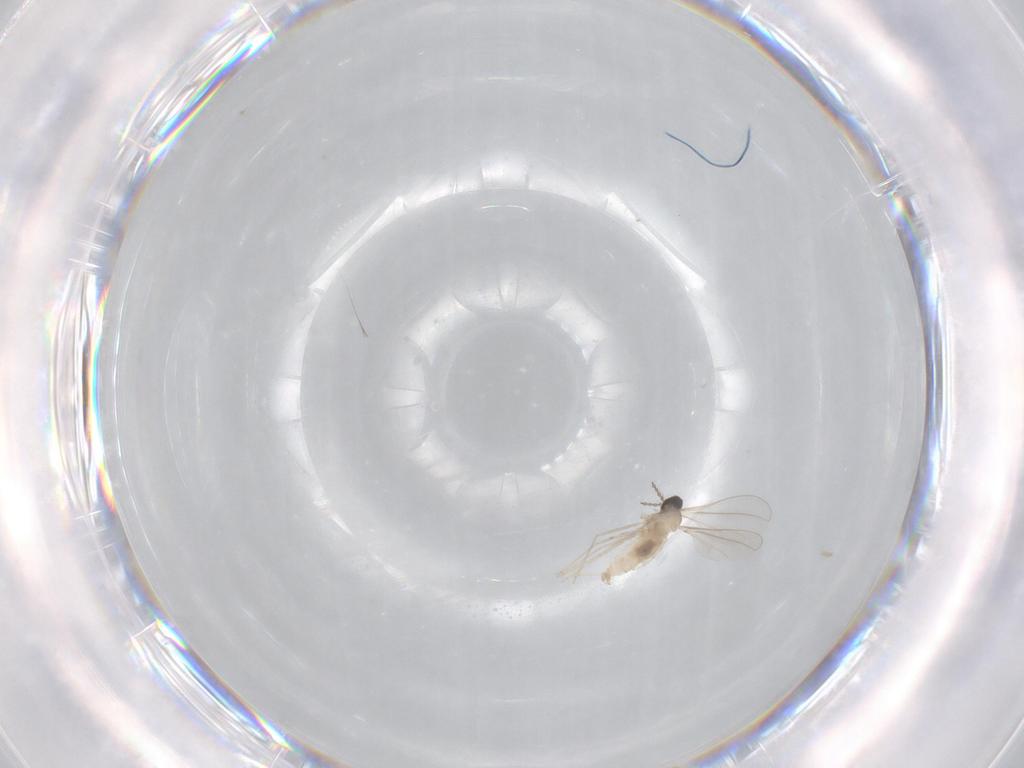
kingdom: Animalia
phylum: Arthropoda
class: Insecta
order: Diptera
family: Cecidomyiidae
